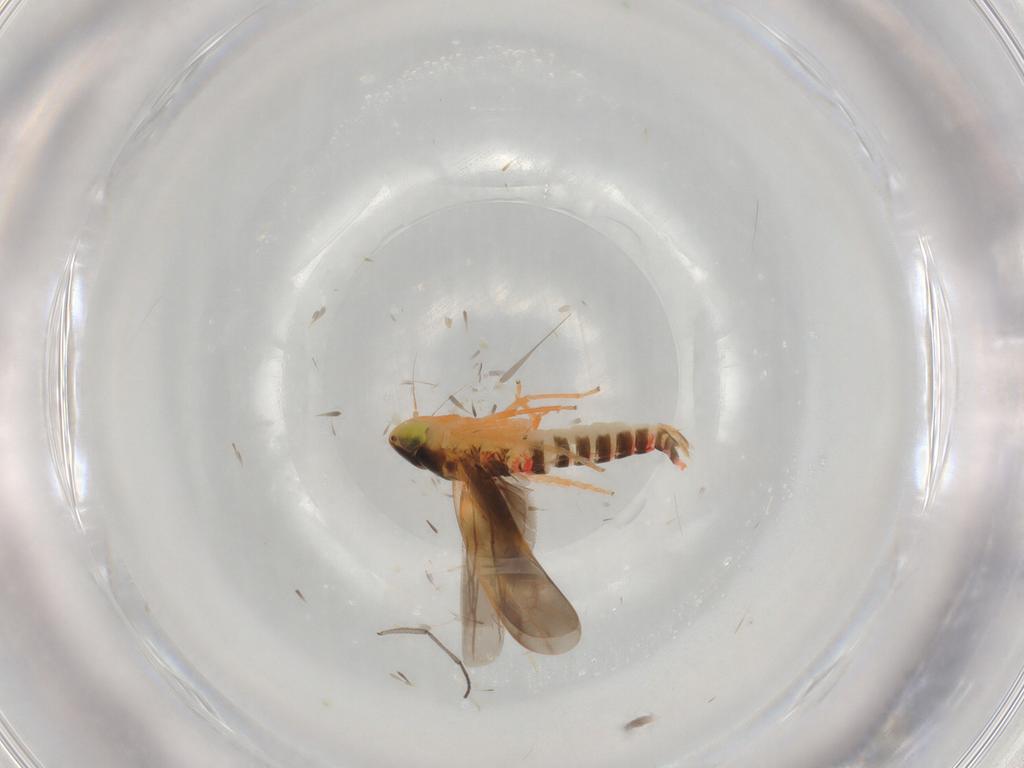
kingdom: Animalia
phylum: Arthropoda
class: Insecta
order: Hemiptera
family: Cicadellidae
